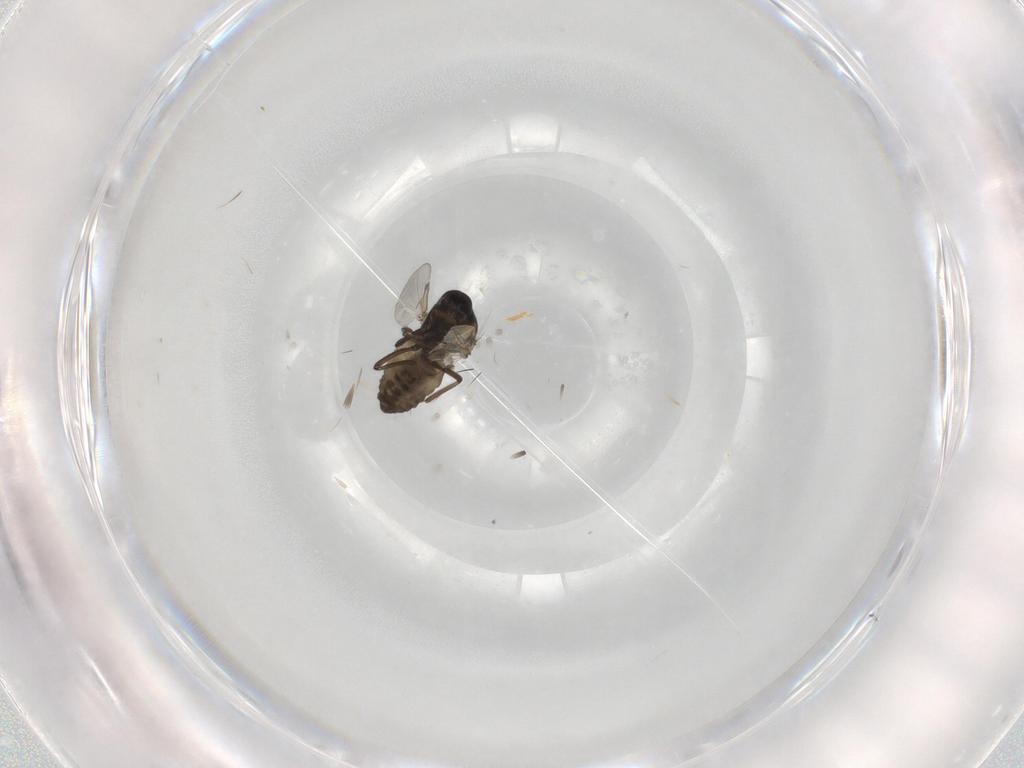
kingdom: Animalia
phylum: Arthropoda
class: Insecta
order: Diptera
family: Ceratopogonidae
